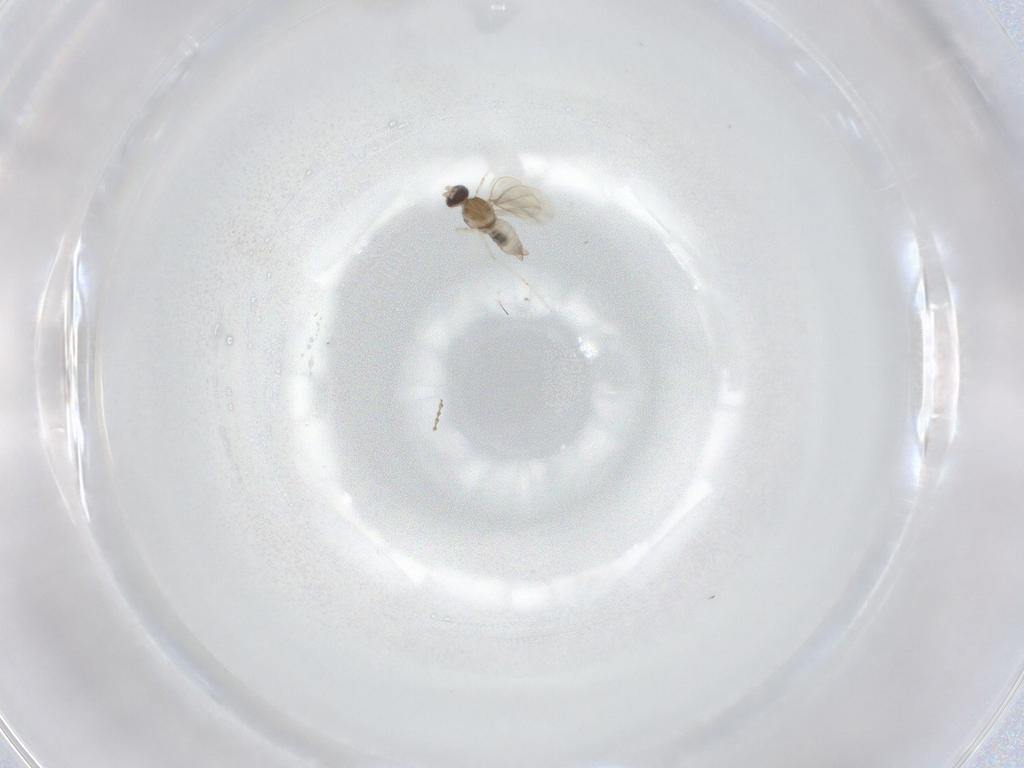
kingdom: Animalia
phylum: Arthropoda
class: Insecta
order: Diptera
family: Cecidomyiidae
